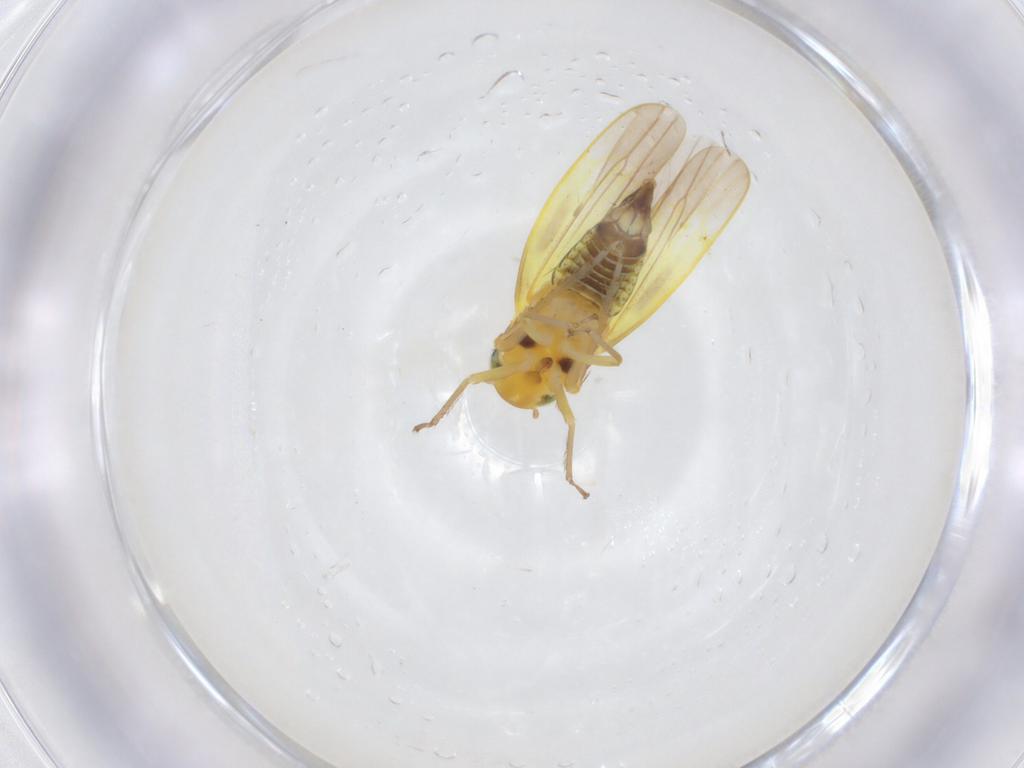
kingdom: Animalia
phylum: Arthropoda
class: Insecta
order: Hemiptera
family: Cicadellidae
